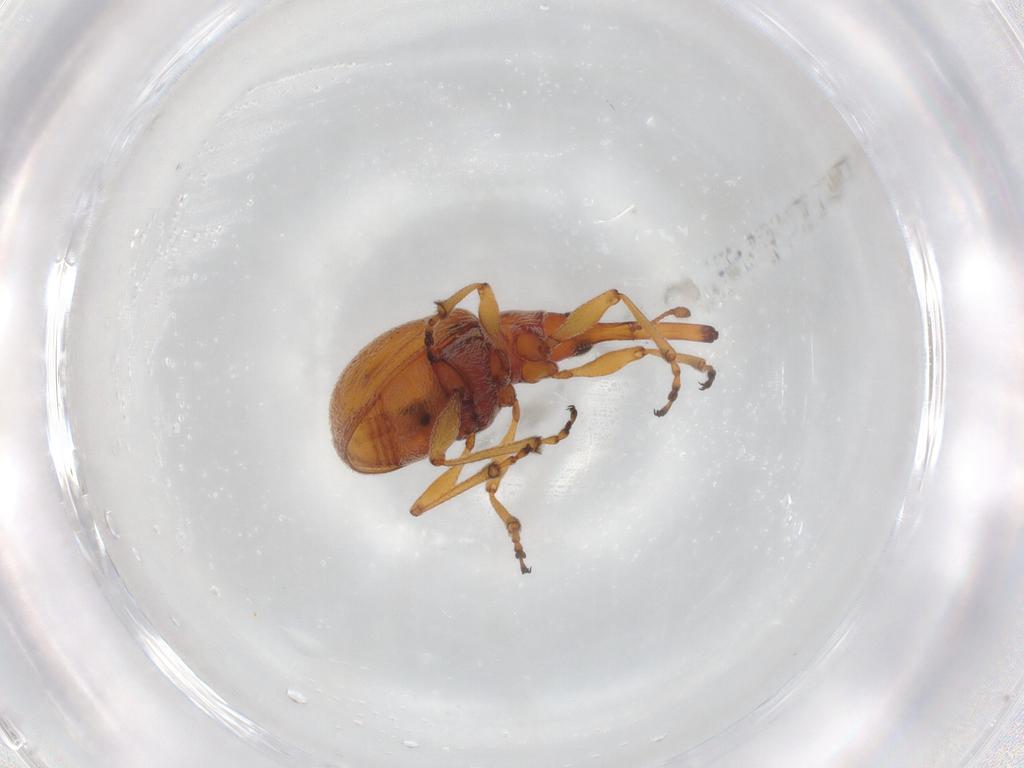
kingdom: Animalia
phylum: Arthropoda
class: Insecta
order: Coleoptera
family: Brentidae
